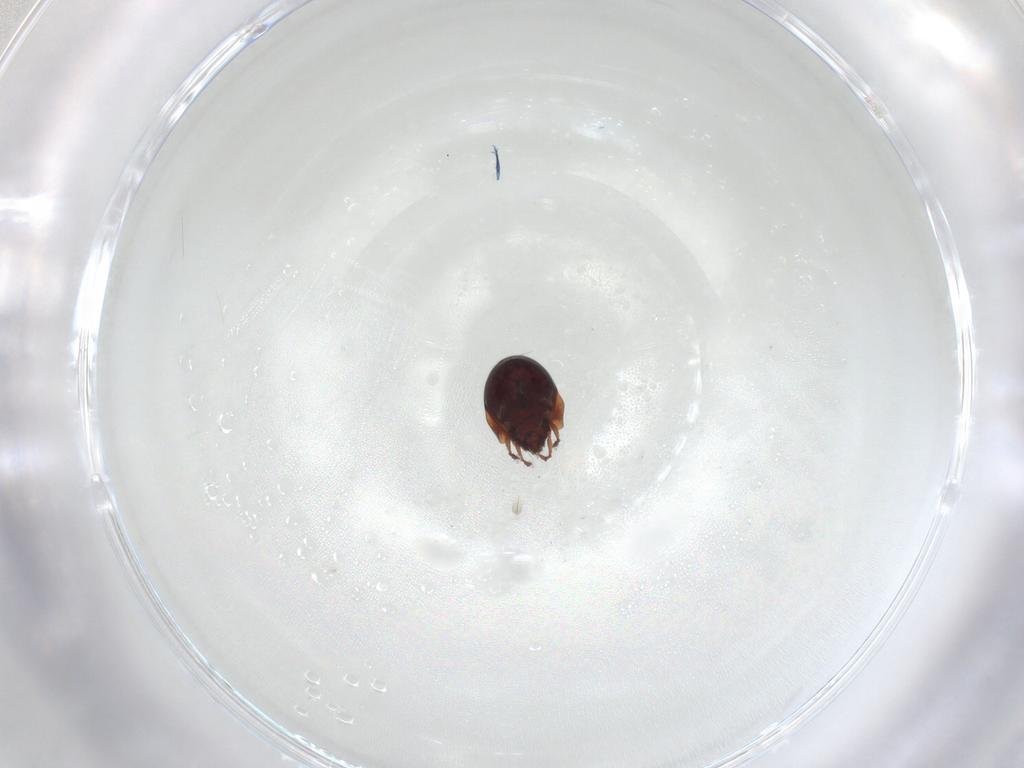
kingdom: Animalia
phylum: Arthropoda
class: Arachnida
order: Sarcoptiformes
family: Humerobatidae
